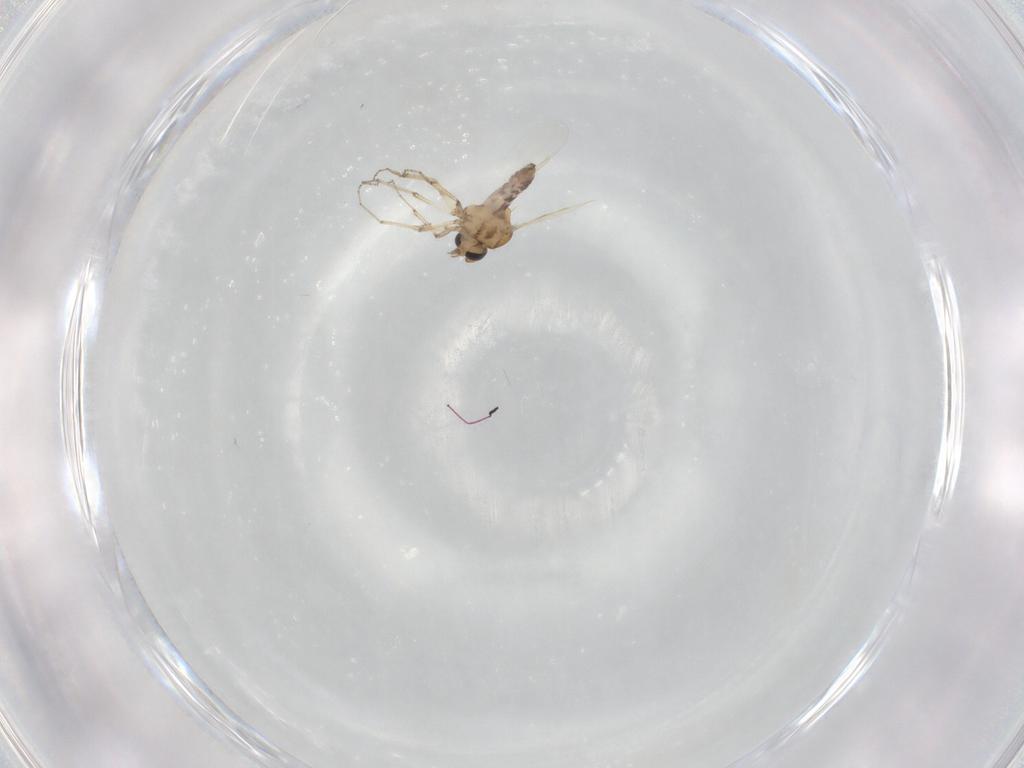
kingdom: Animalia
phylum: Arthropoda
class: Insecta
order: Diptera
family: Ceratopogonidae
